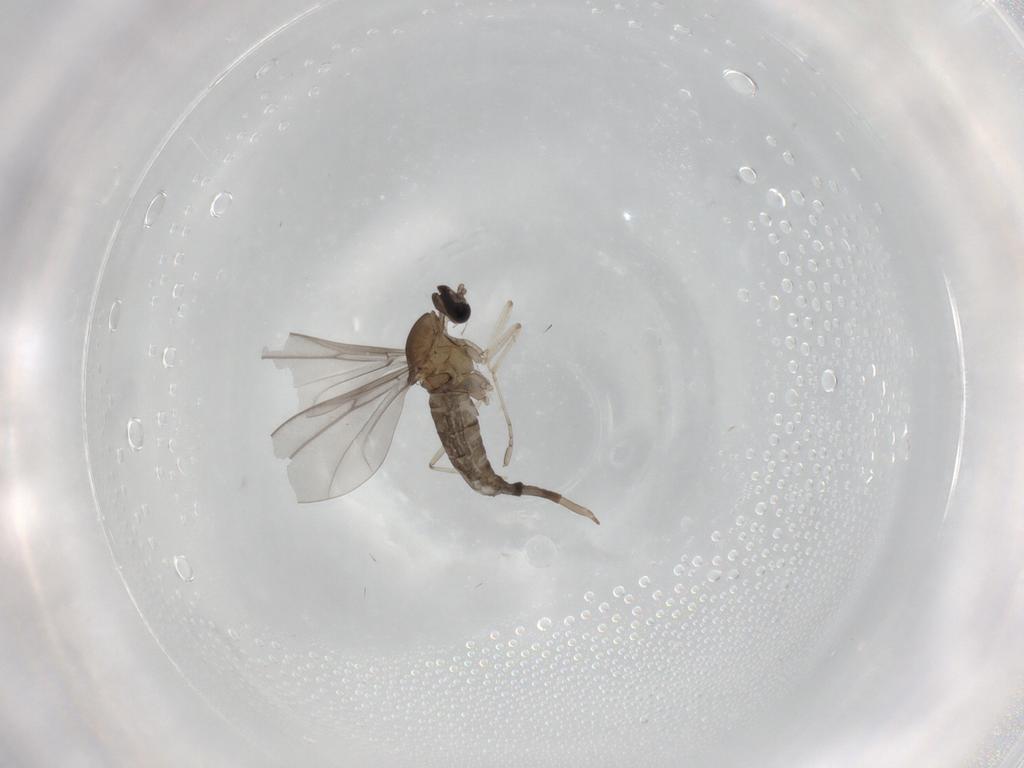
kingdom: Animalia
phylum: Arthropoda
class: Insecta
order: Diptera
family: Cecidomyiidae
